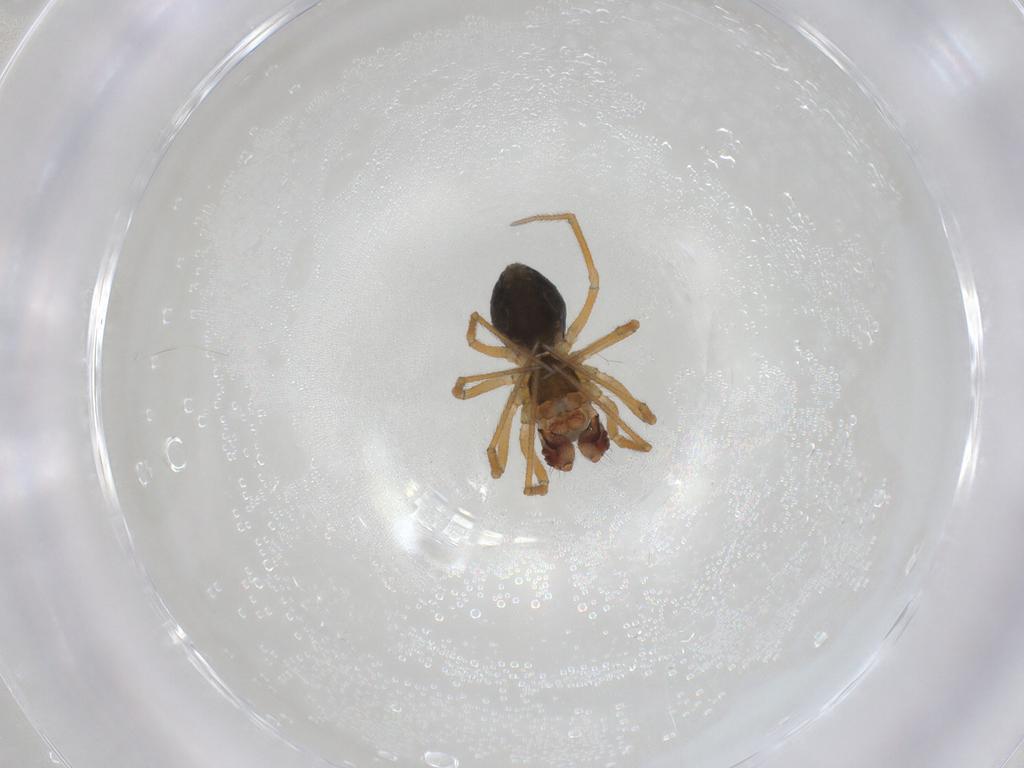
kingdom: Animalia
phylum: Arthropoda
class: Arachnida
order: Araneae
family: Linyphiidae
